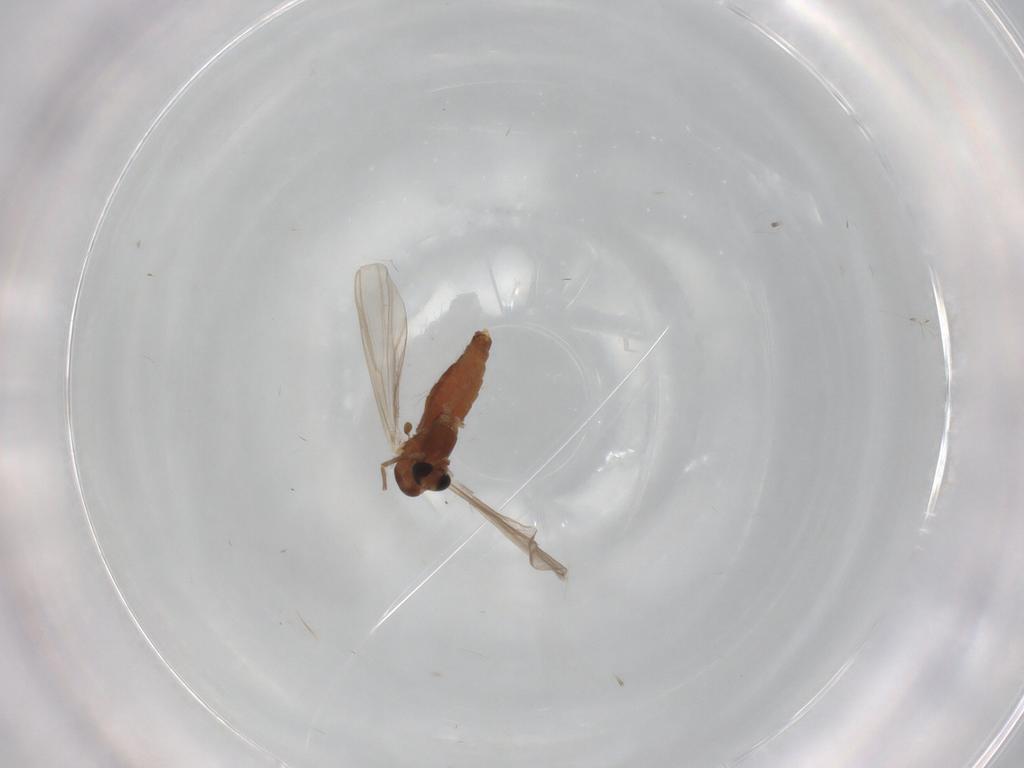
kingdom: Animalia
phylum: Arthropoda
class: Insecta
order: Diptera
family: Chironomidae
